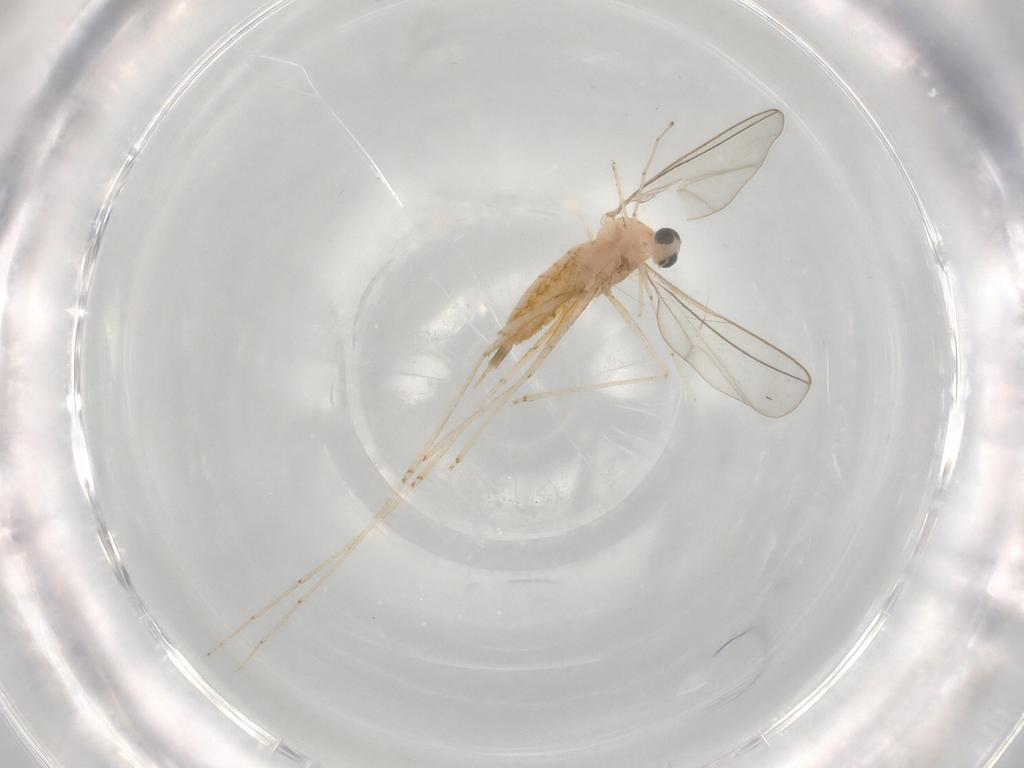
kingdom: Animalia
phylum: Arthropoda
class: Insecta
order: Diptera
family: Cecidomyiidae
